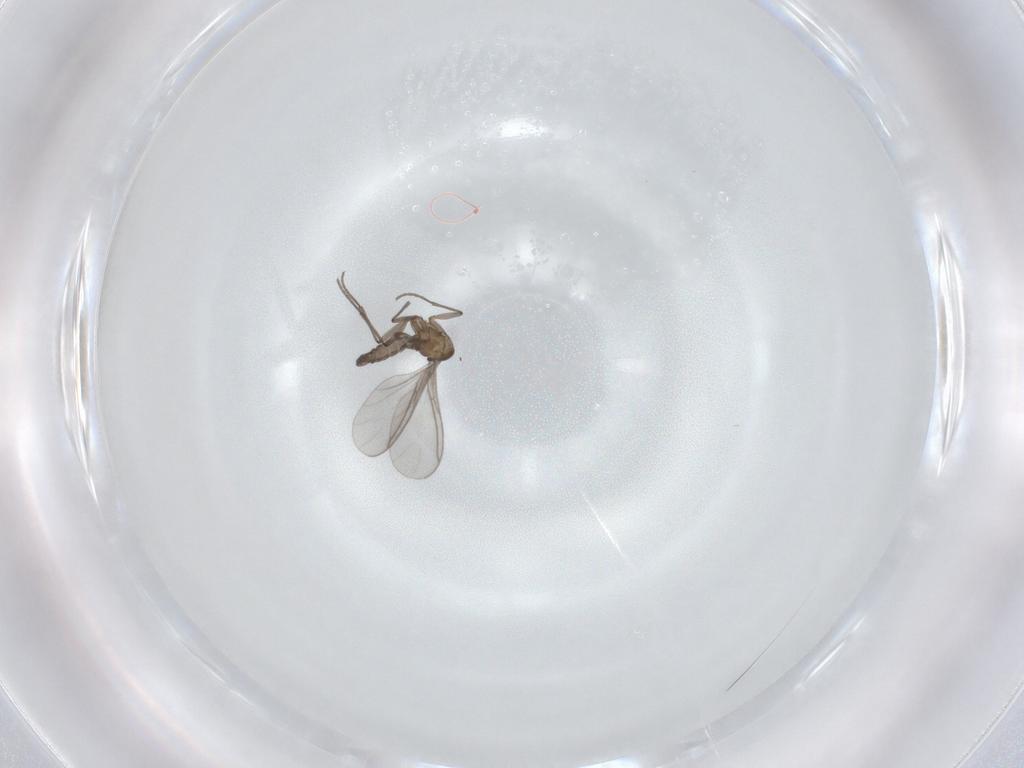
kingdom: Animalia
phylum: Arthropoda
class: Insecta
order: Diptera
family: Sciaridae
